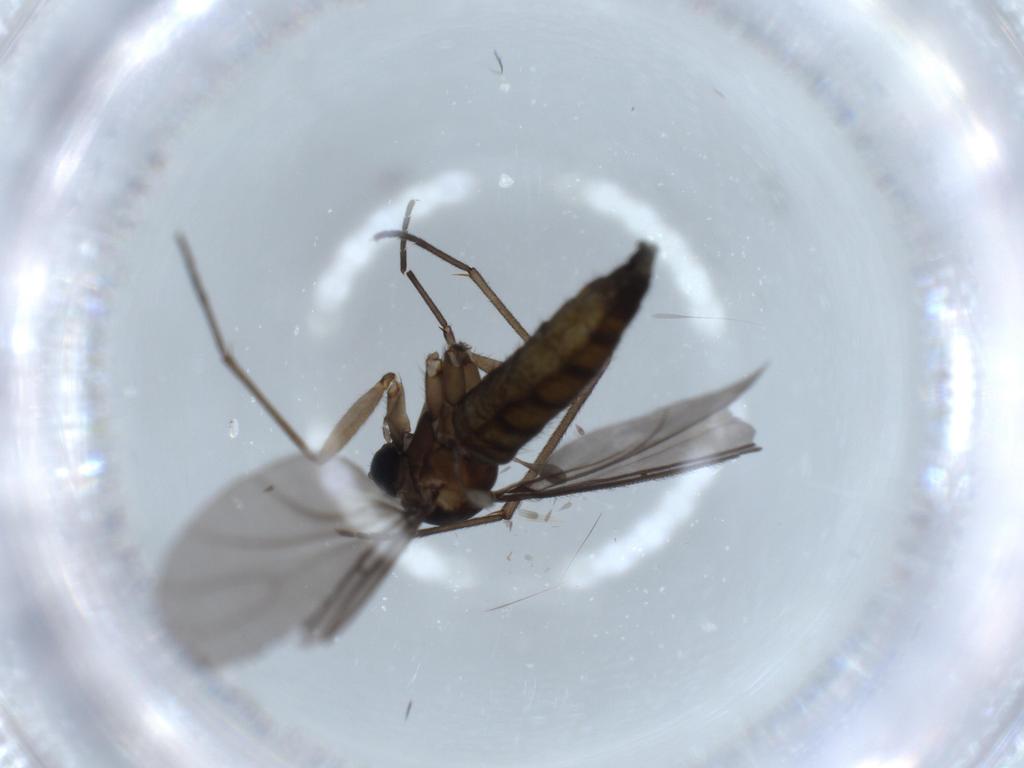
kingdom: Animalia
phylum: Arthropoda
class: Insecta
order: Diptera
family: Sciaridae
